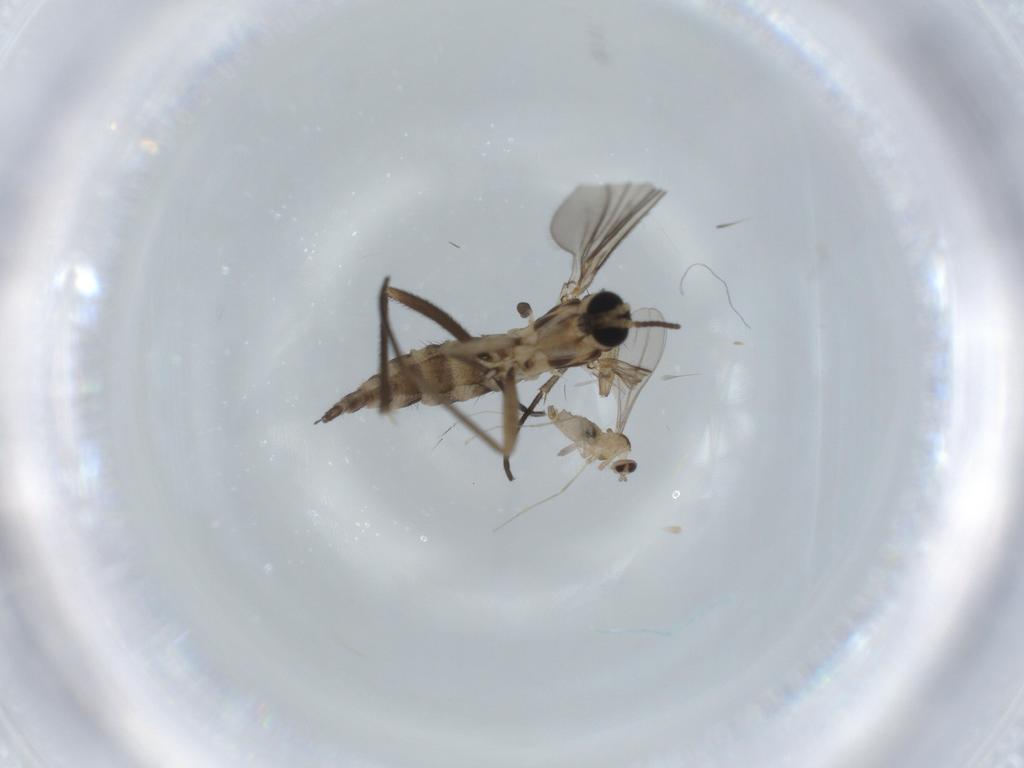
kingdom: Animalia
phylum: Arthropoda
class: Insecta
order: Diptera
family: Cecidomyiidae
